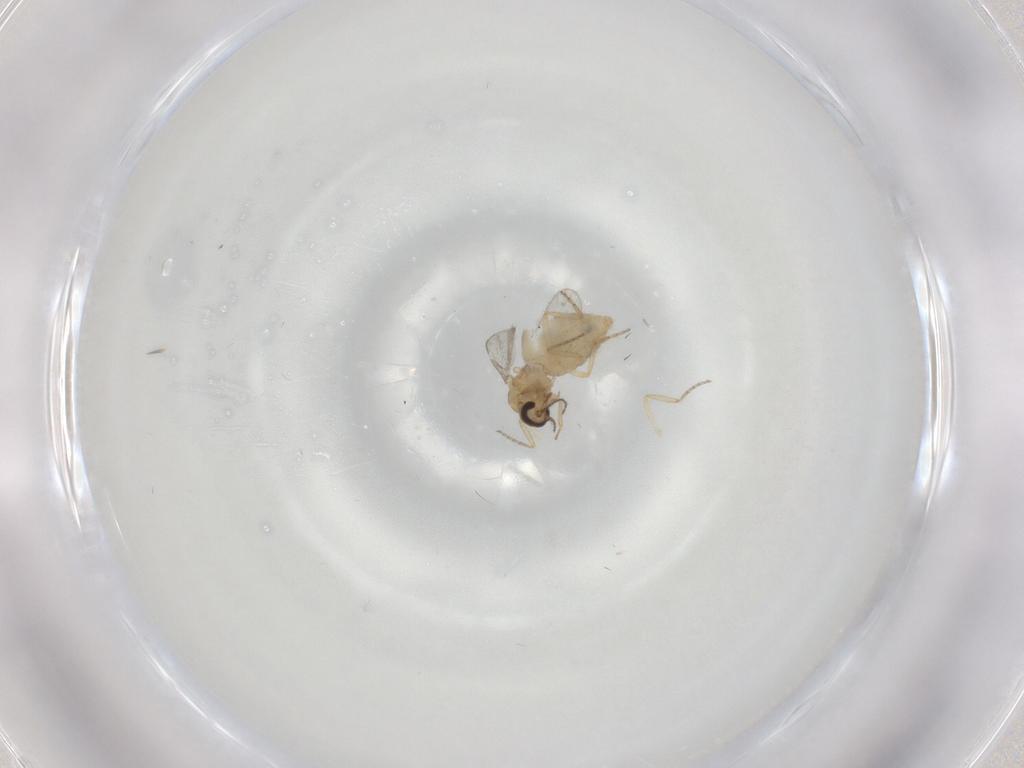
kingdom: Animalia
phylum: Arthropoda
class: Insecta
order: Diptera
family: Ceratopogonidae
